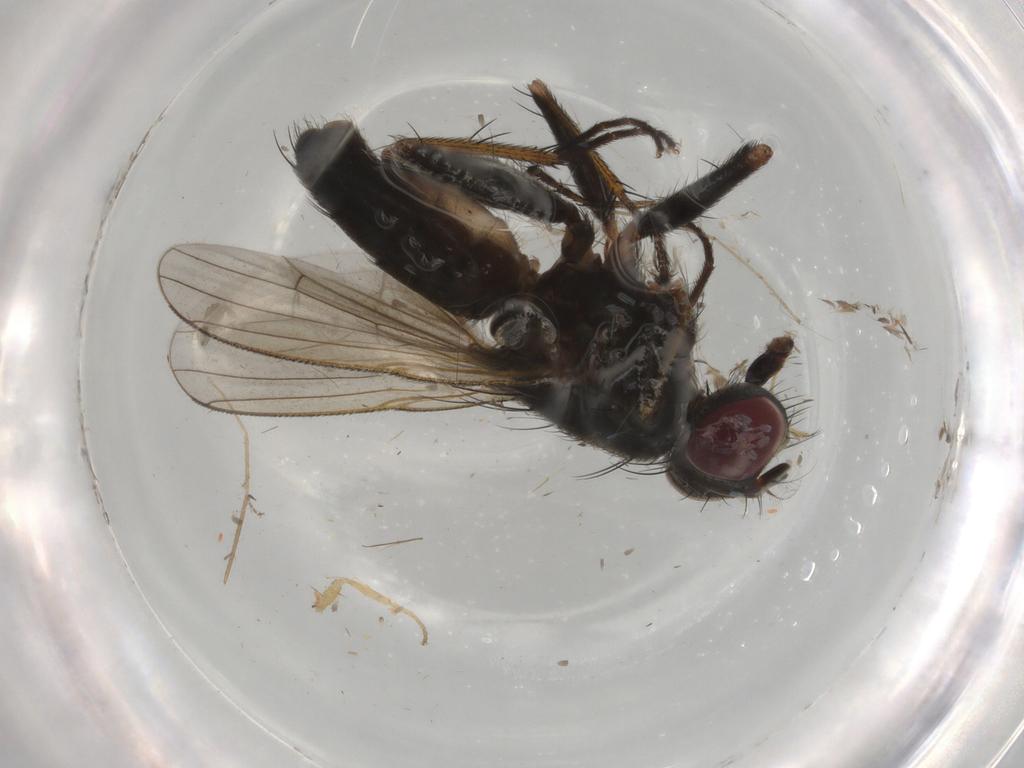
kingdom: Animalia
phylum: Arthropoda
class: Insecta
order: Diptera
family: Muscidae
